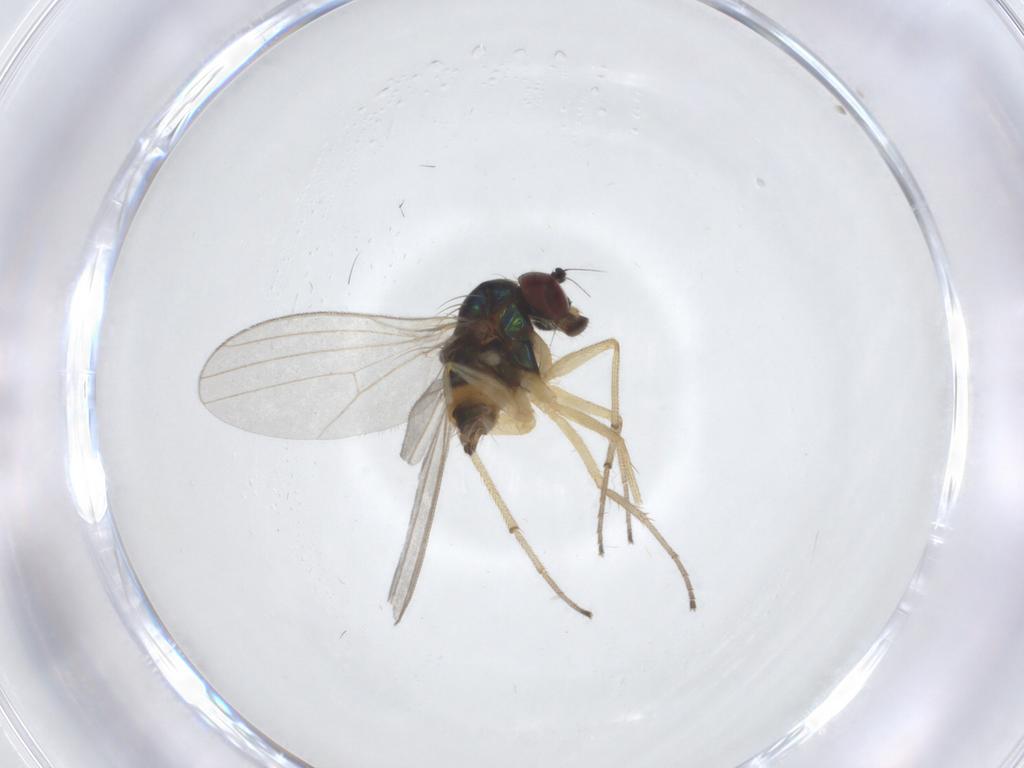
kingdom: Animalia
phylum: Arthropoda
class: Insecta
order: Diptera
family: Dolichopodidae
